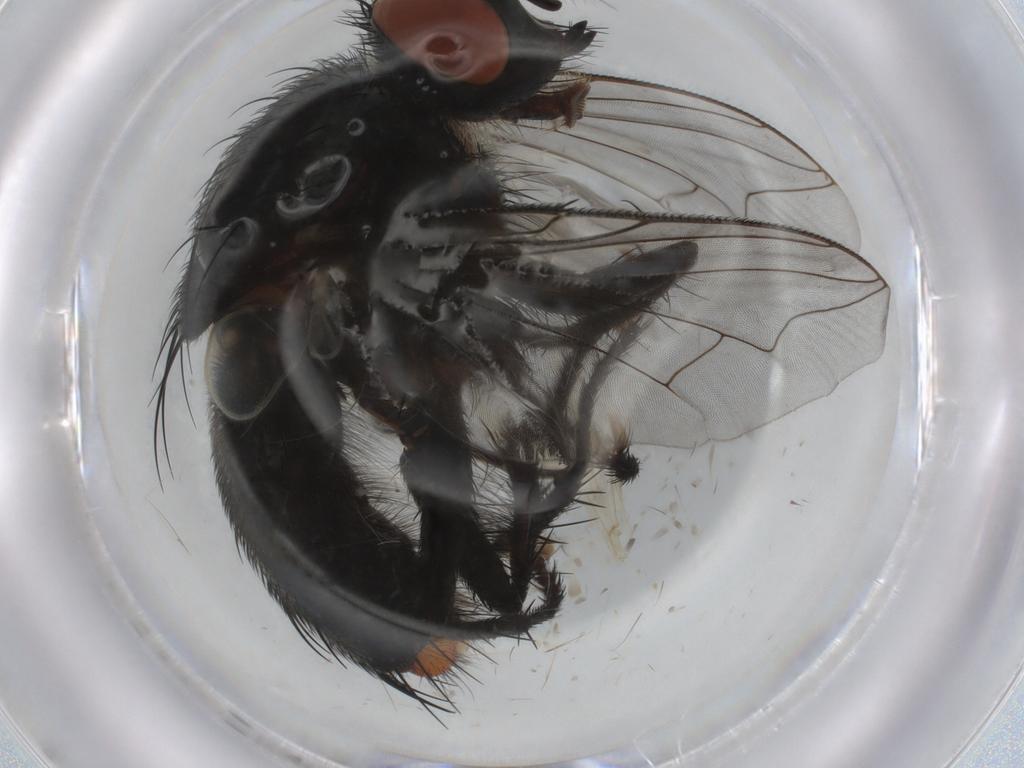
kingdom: Animalia
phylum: Arthropoda
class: Insecta
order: Diptera
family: Sarcophagidae
